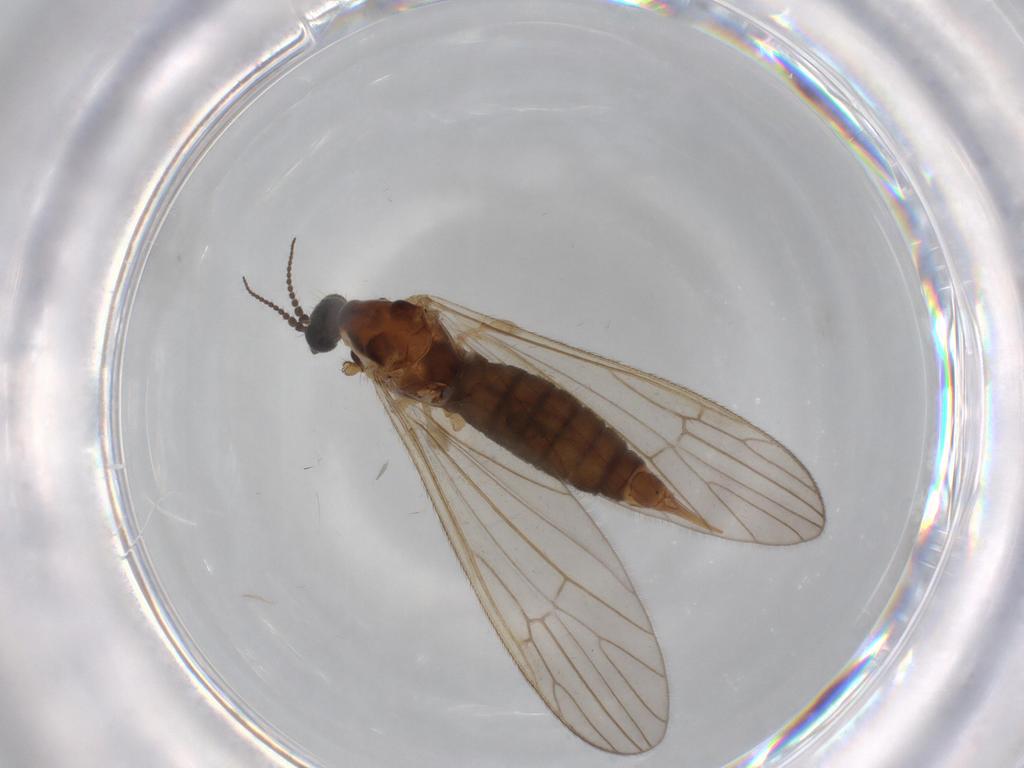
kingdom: Animalia
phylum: Arthropoda
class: Insecta
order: Diptera
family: Agromyzidae
